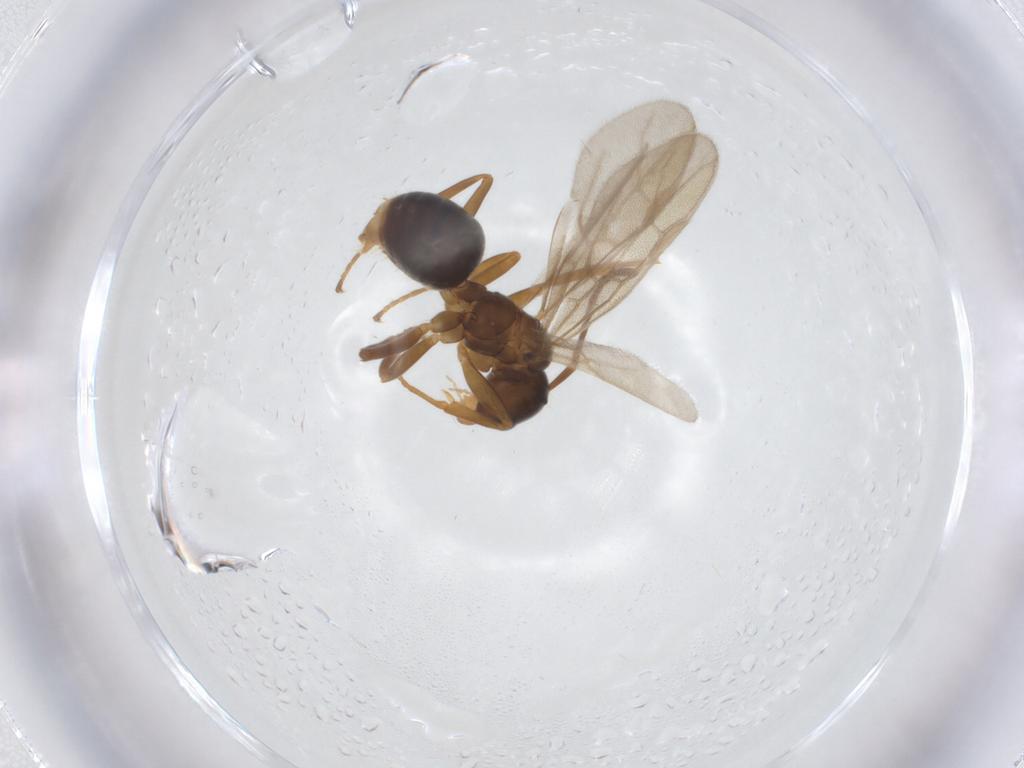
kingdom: Animalia
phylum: Arthropoda
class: Insecta
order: Hymenoptera
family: Formicidae
